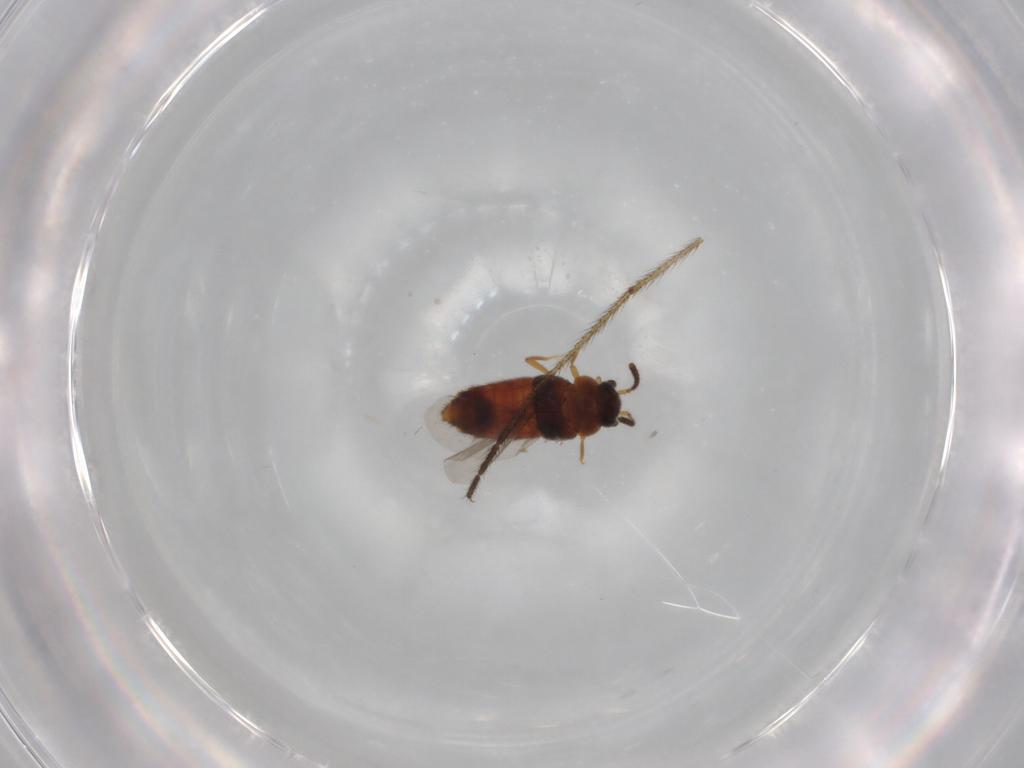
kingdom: Animalia
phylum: Arthropoda
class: Insecta
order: Coleoptera
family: Staphylinidae
